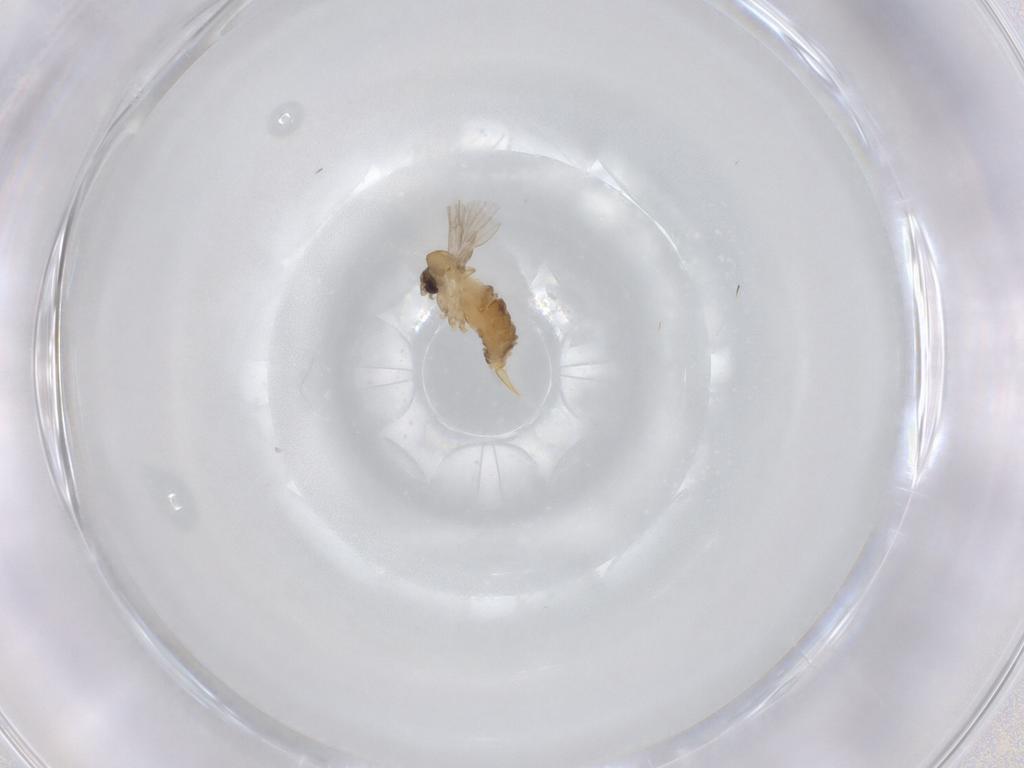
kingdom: Animalia
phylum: Arthropoda
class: Insecta
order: Diptera
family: Psychodidae
